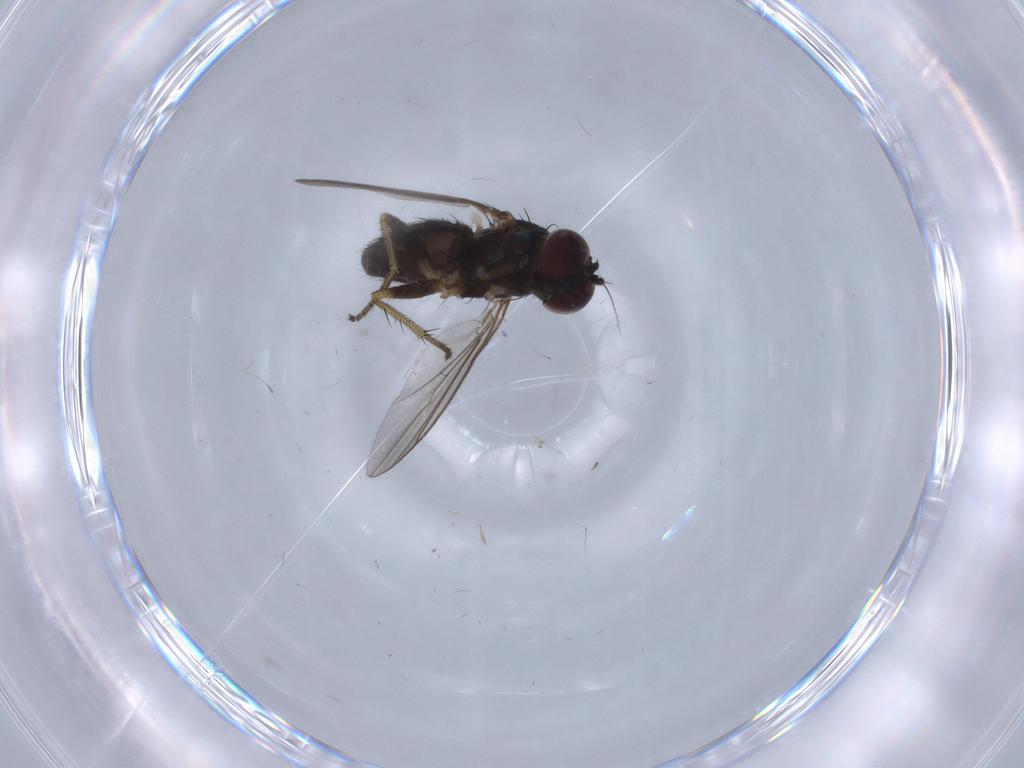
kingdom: Animalia
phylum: Arthropoda
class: Insecta
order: Diptera
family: Dolichopodidae
